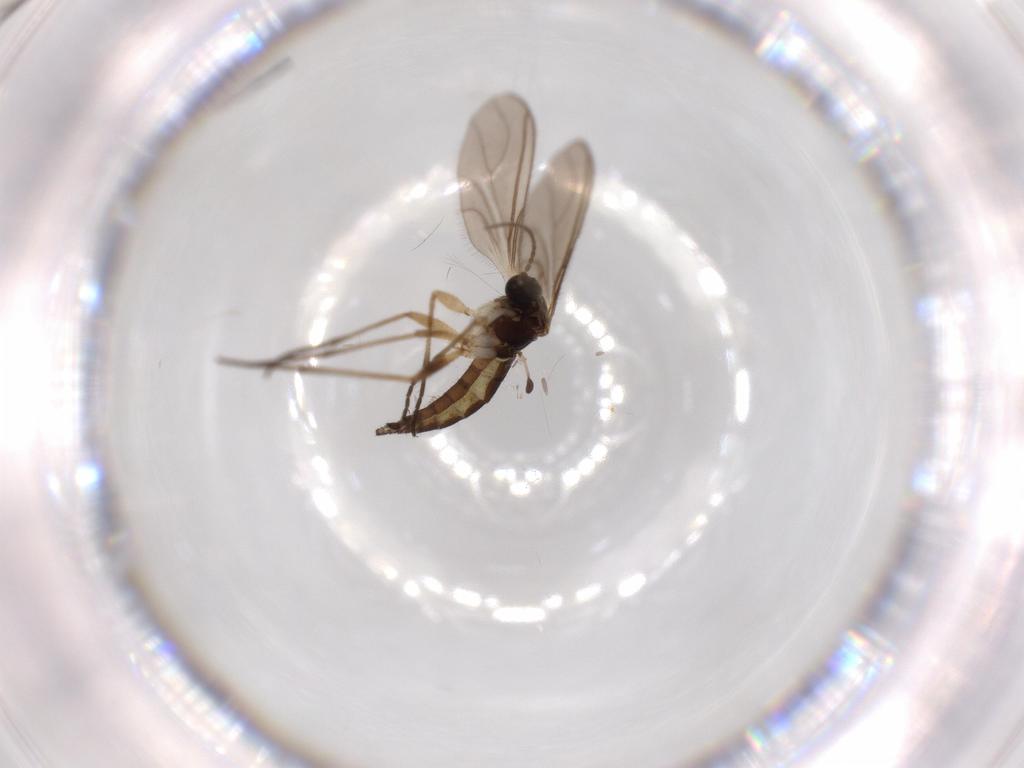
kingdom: Animalia
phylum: Arthropoda
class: Insecta
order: Diptera
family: Sciaridae
